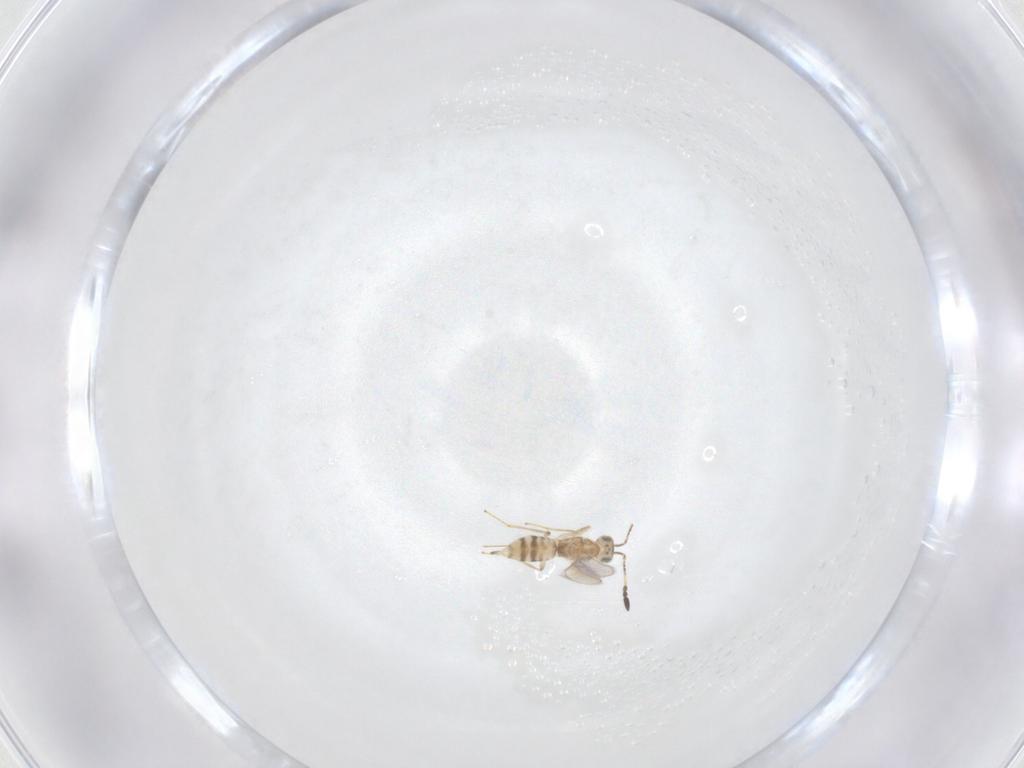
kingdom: Animalia
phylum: Arthropoda
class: Insecta
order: Hymenoptera
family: Mymaridae
